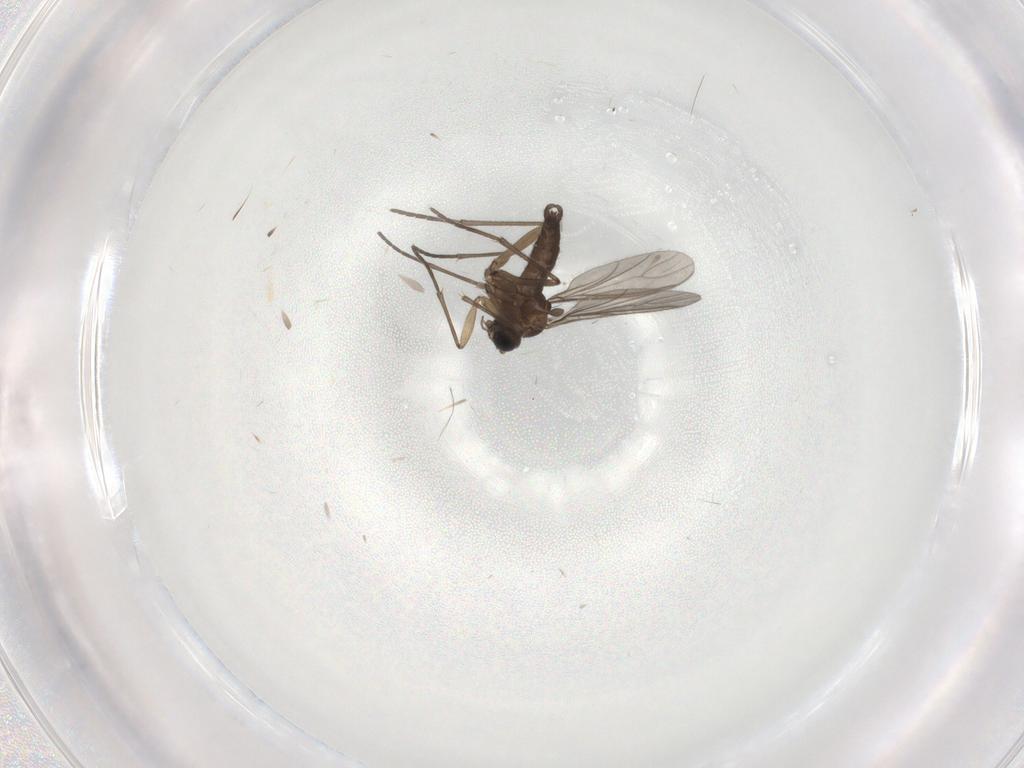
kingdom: Animalia
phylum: Arthropoda
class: Insecta
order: Diptera
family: Sciaridae
